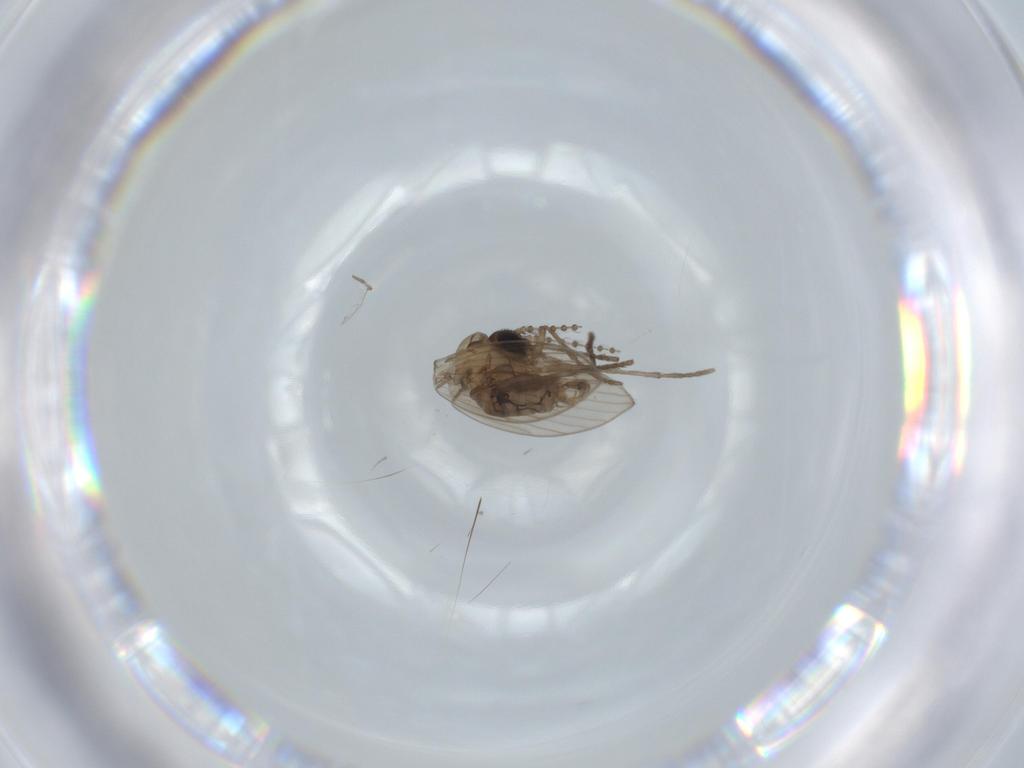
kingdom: Animalia
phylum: Arthropoda
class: Insecta
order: Diptera
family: Psychodidae
